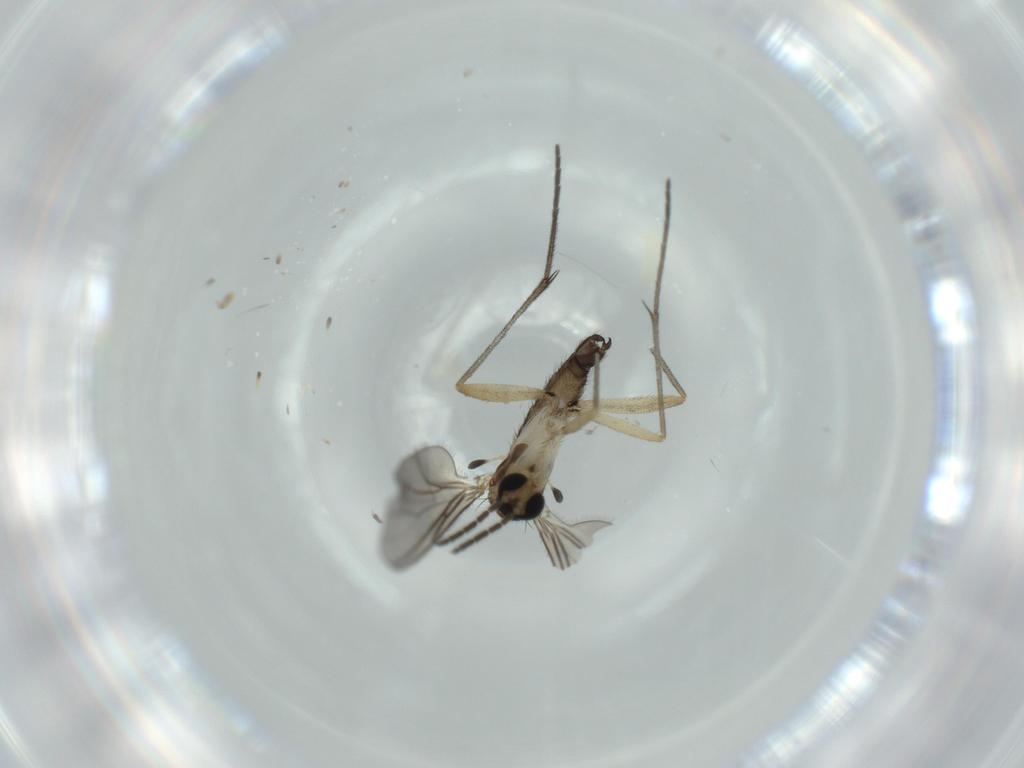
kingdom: Animalia
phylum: Arthropoda
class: Insecta
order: Diptera
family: Sciaridae
